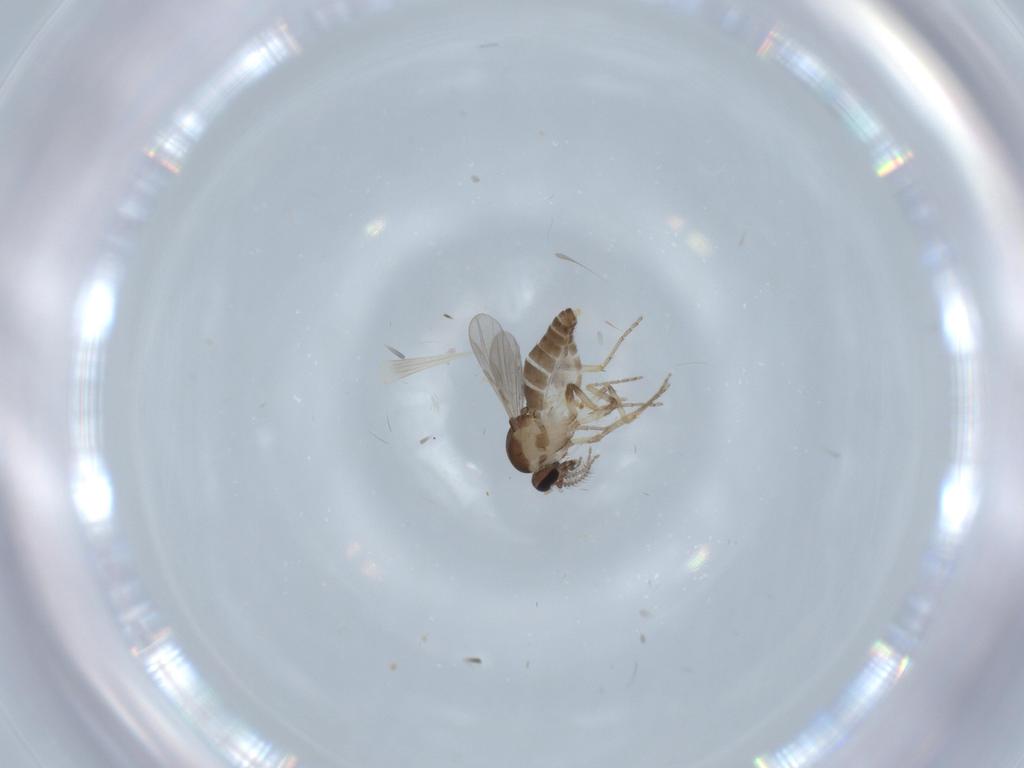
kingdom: Animalia
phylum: Arthropoda
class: Insecta
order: Diptera
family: Ceratopogonidae
